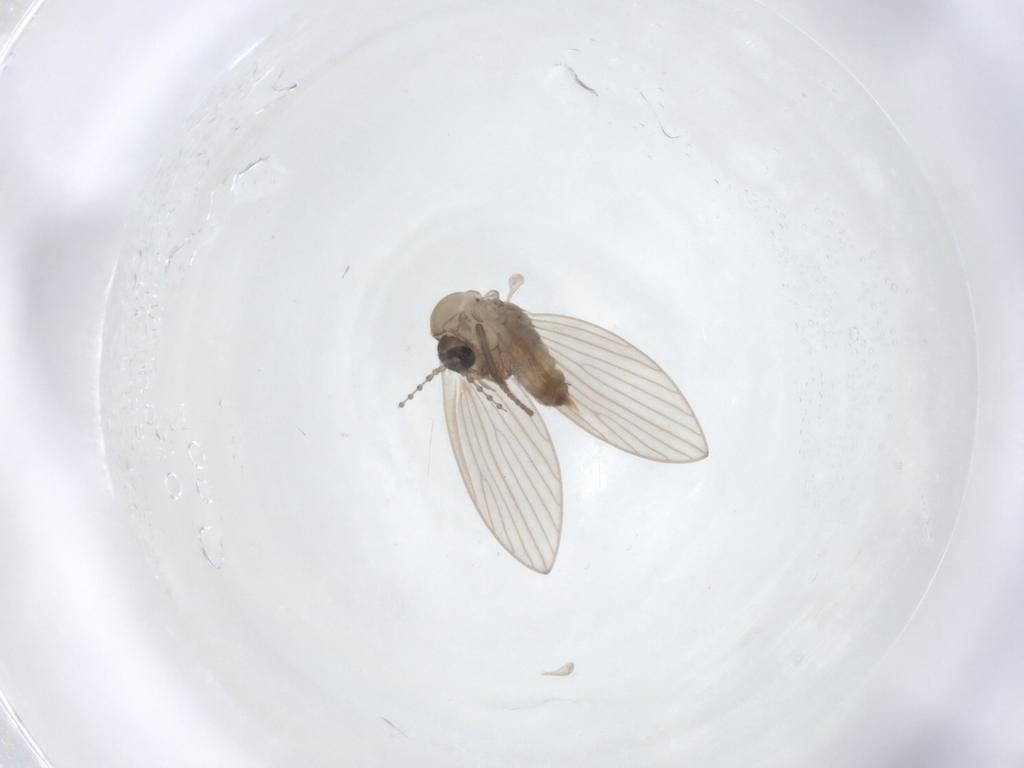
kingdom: Animalia
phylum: Arthropoda
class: Insecta
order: Diptera
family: Psychodidae
